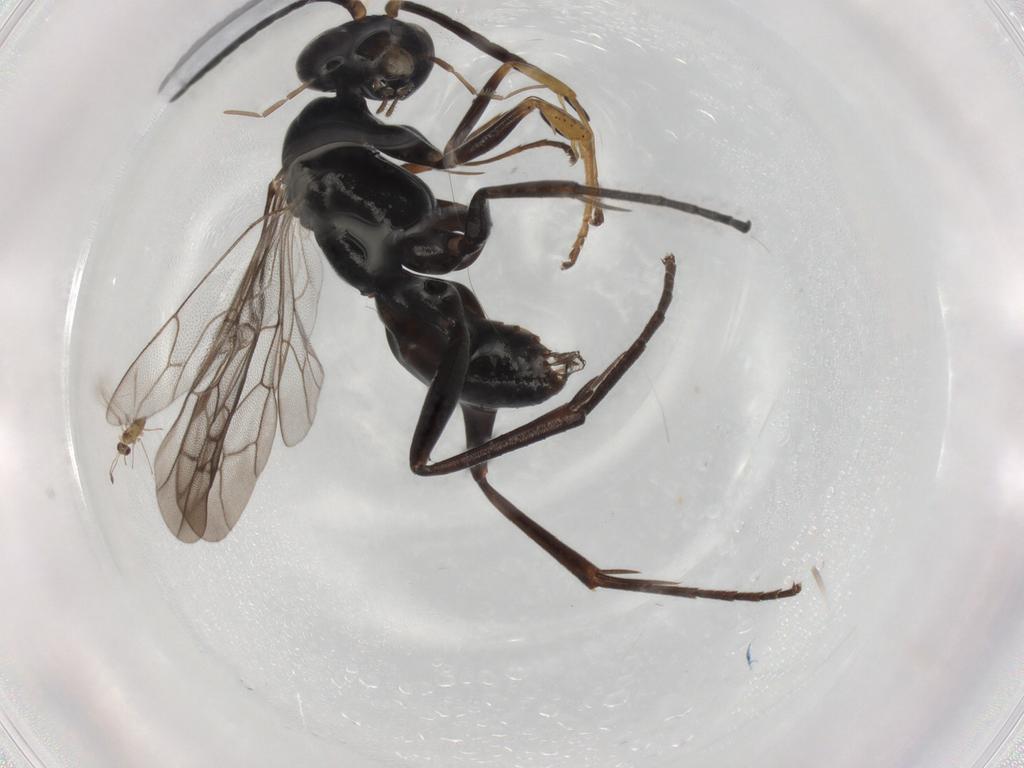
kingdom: Animalia
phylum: Arthropoda
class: Insecta
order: Hymenoptera
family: Pompilidae
